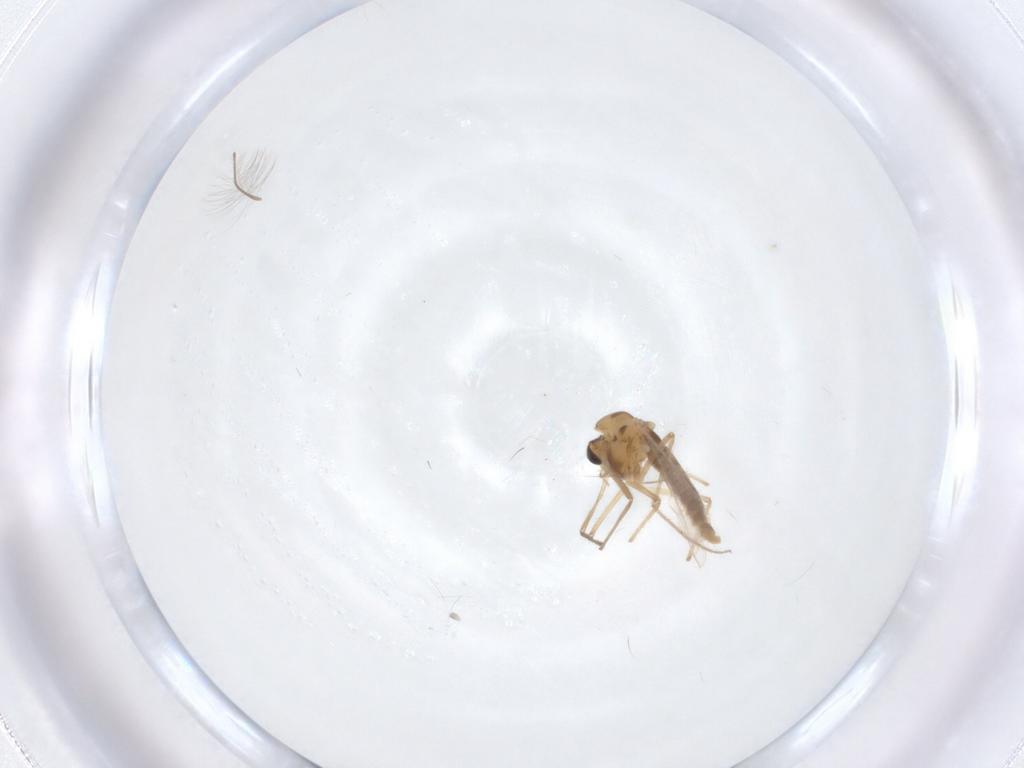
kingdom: Animalia
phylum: Arthropoda
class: Insecta
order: Diptera
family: Chironomidae
